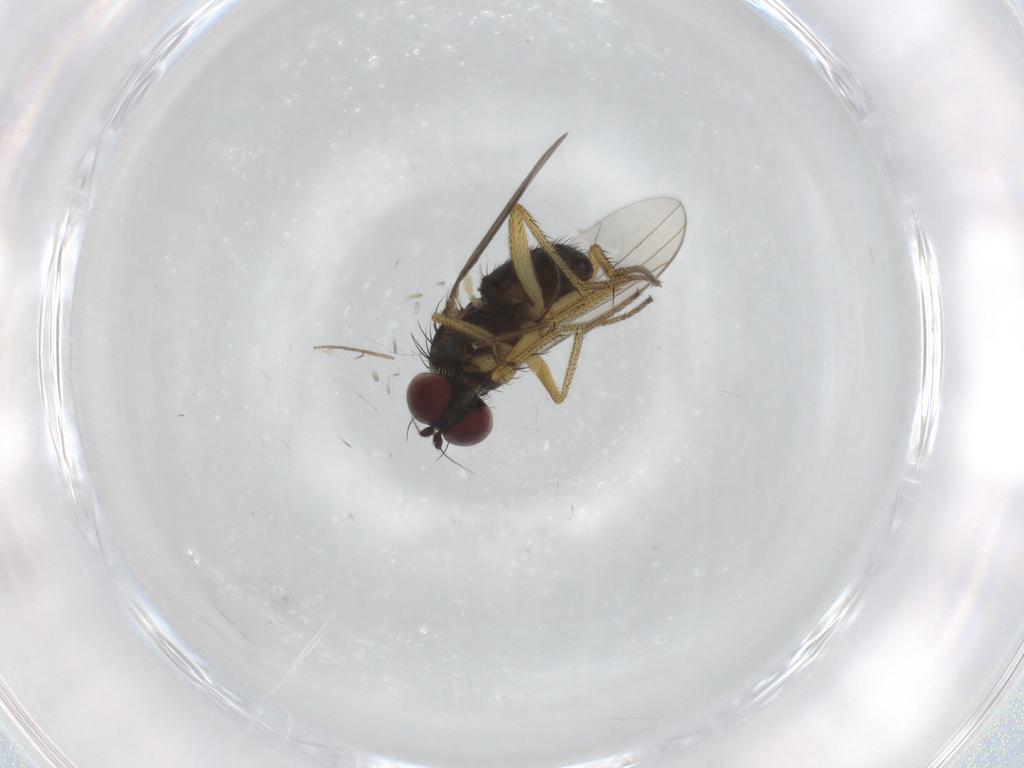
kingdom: Animalia
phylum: Arthropoda
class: Insecta
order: Diptera
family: Dolichopodidae
